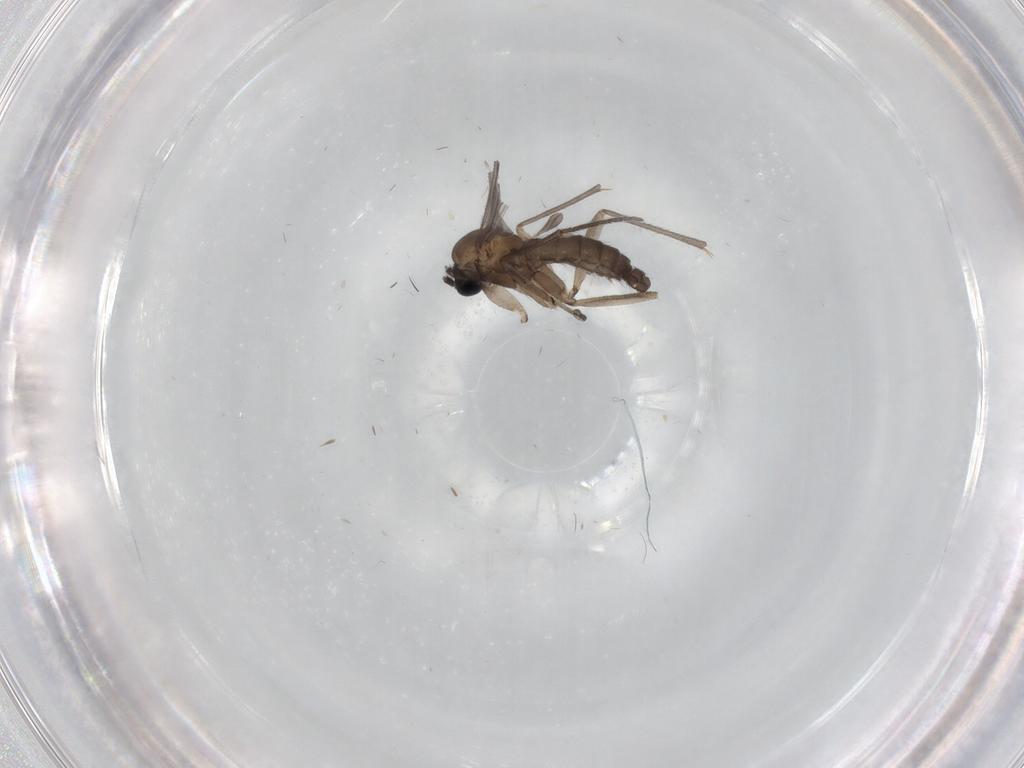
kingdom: Animalia
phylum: Arthropoda
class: Insecta
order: Diptera
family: Sciaridae
